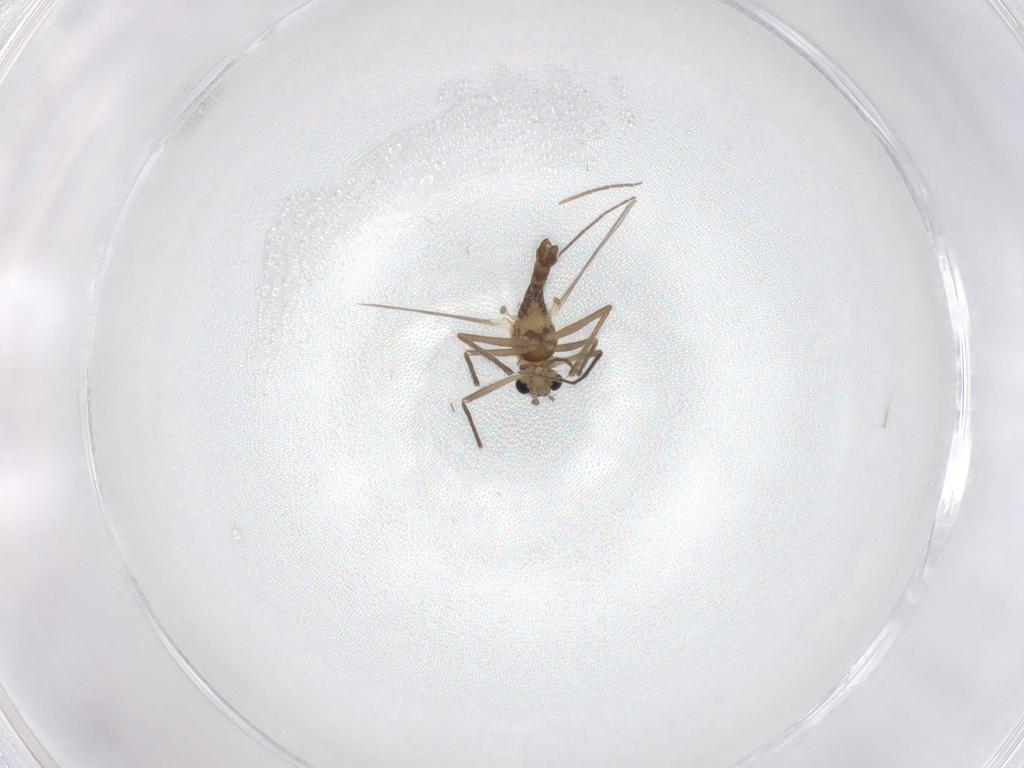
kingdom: Animalia
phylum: Arthropoda
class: Insecta
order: Diptera
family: Chironomidae
